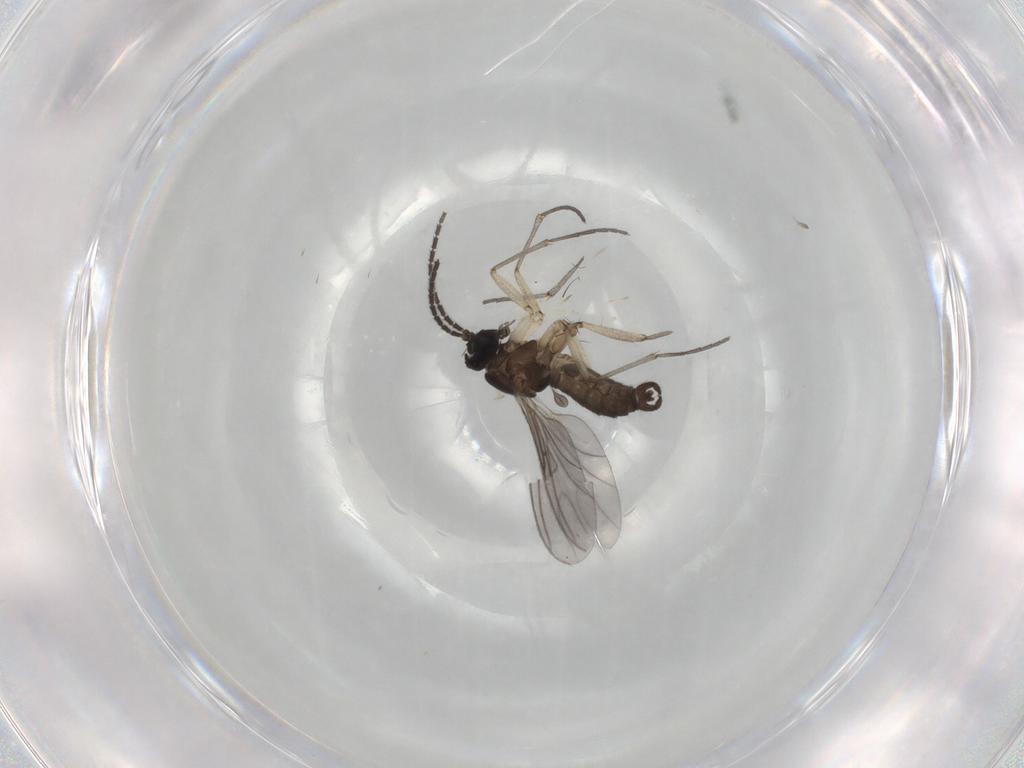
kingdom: Animalia
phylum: Arthropoda
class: Insecta
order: Diptera
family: Sciaridae
